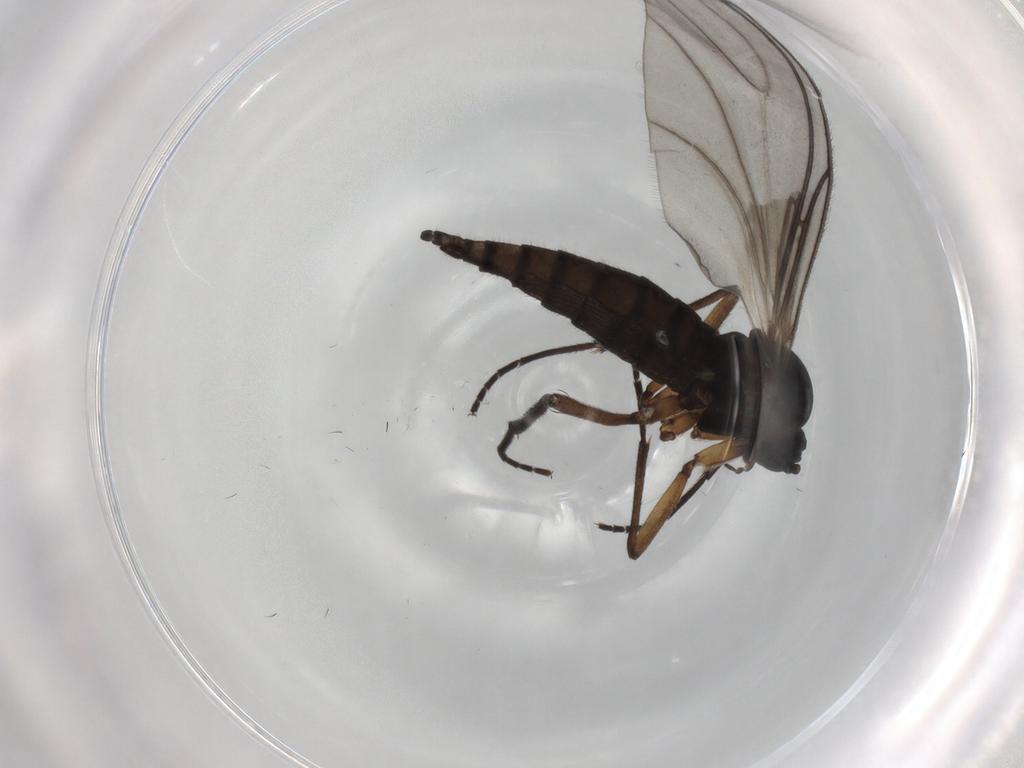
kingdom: Animalia
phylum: Arthropoda
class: Insecta
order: Diptera
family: Sciaridae
